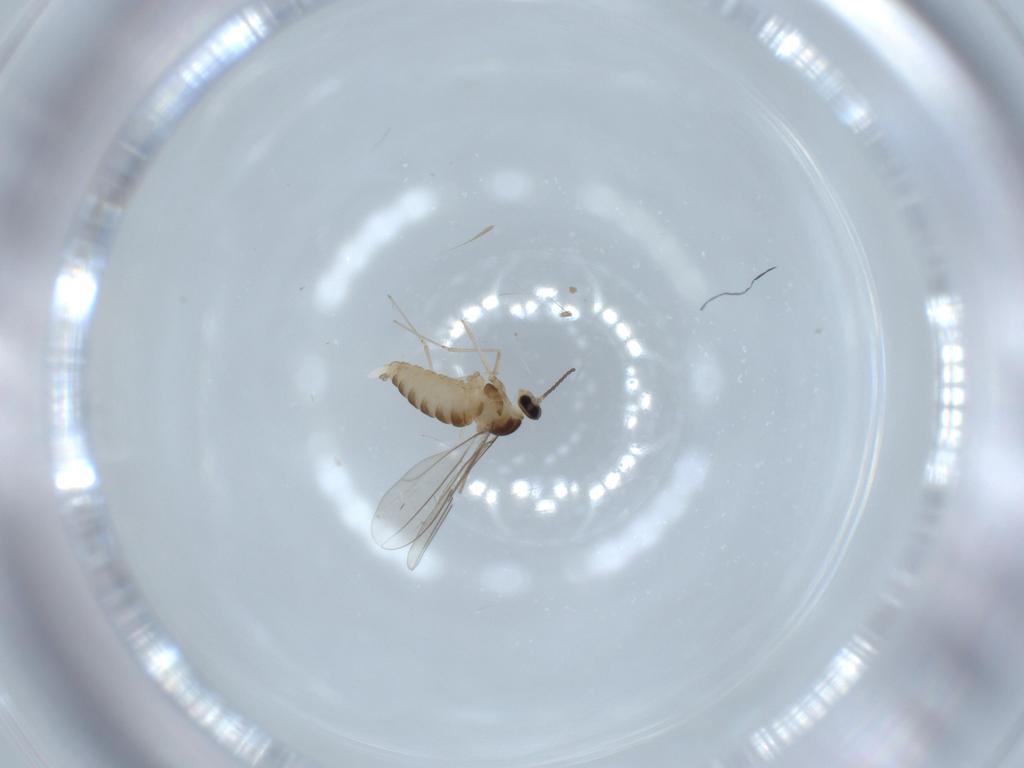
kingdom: Animalia
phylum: Arthropoda
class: Insecta
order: Diptera
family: Cecidomyiidae
